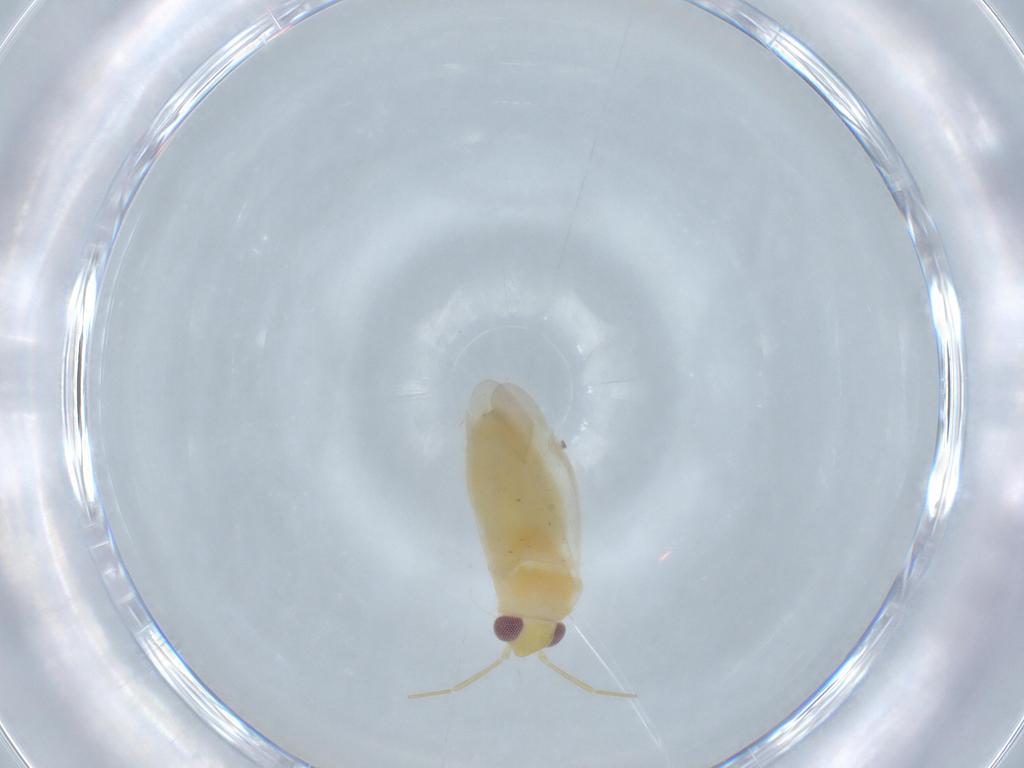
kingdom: Animalia
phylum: Arthropoda
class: Insecta
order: Hemiptera
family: Miridae
